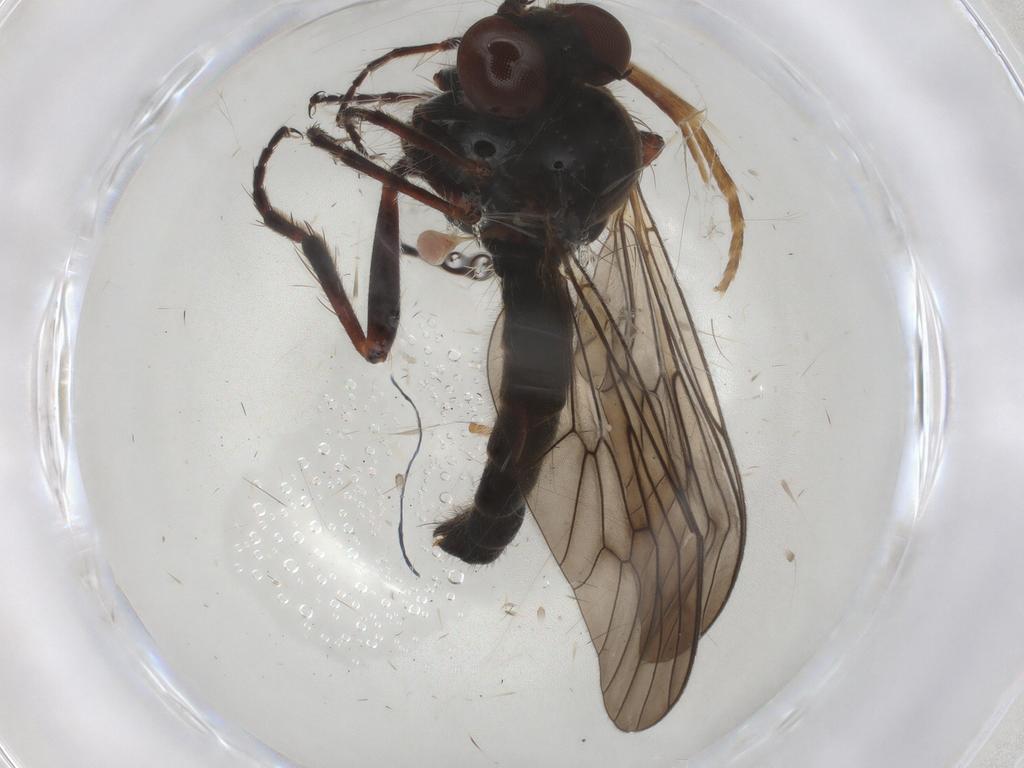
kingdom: Animalia
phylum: Arthropoda
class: Insecta
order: Diptera
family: Asilidae
